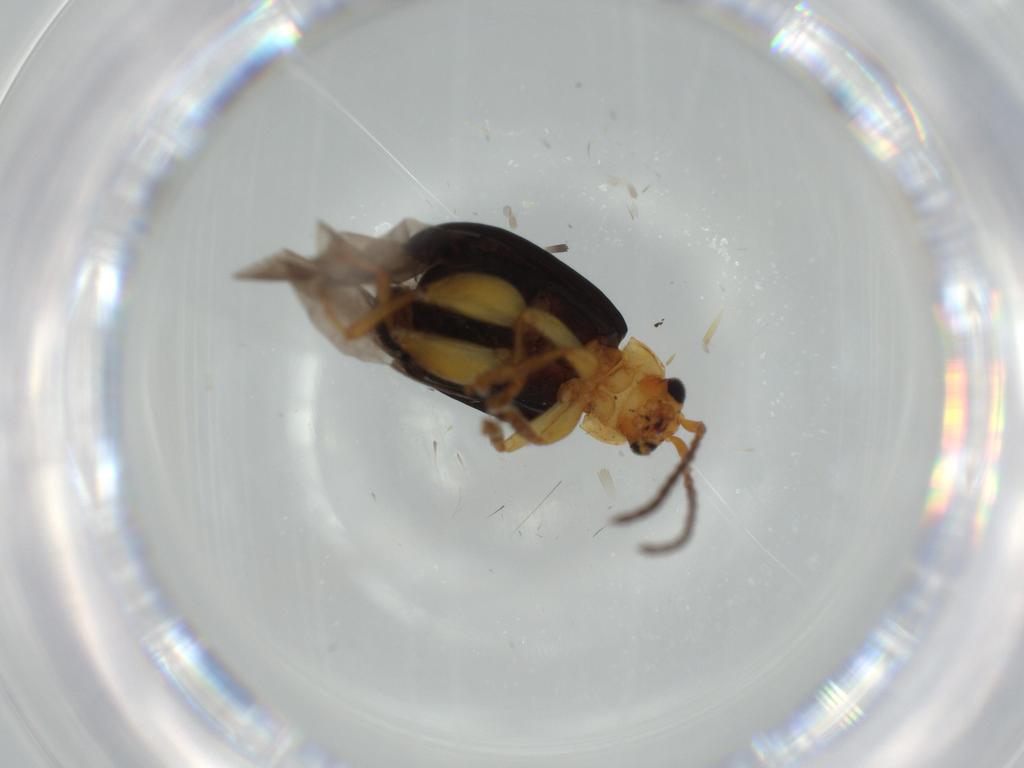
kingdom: Animalia
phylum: Arthropoda
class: Insecta
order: Coleoptera
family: Chrysomelidae
